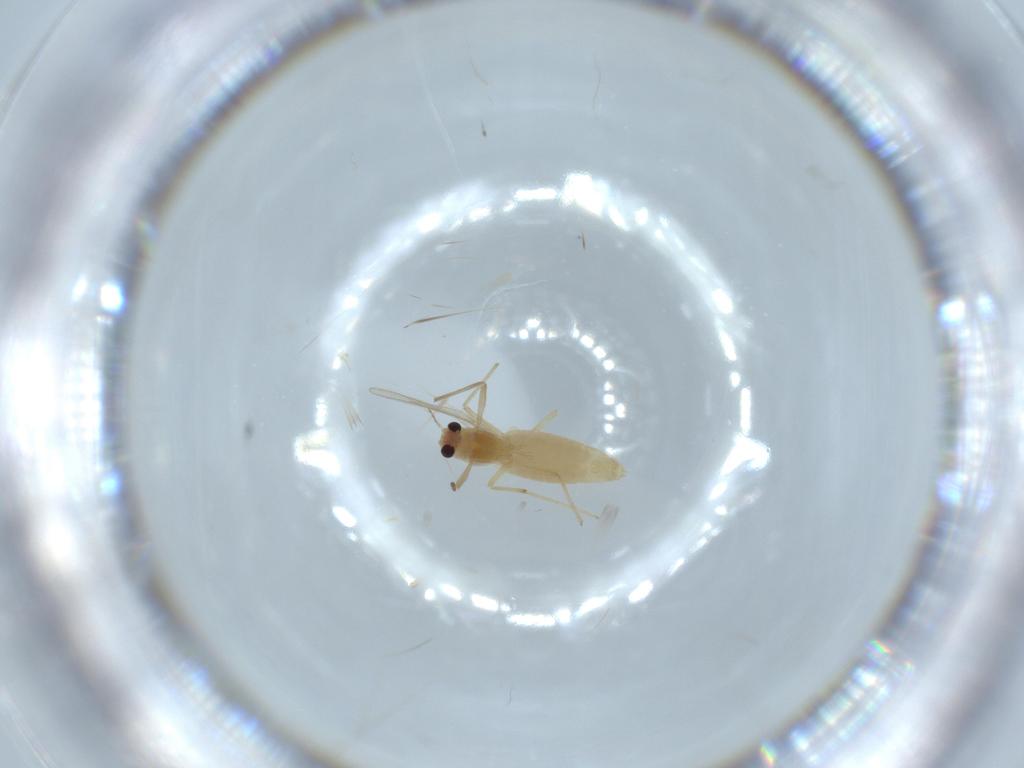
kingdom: Animalia
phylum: Arthropoda
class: Insecta
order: Diptera
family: Chironomidae
